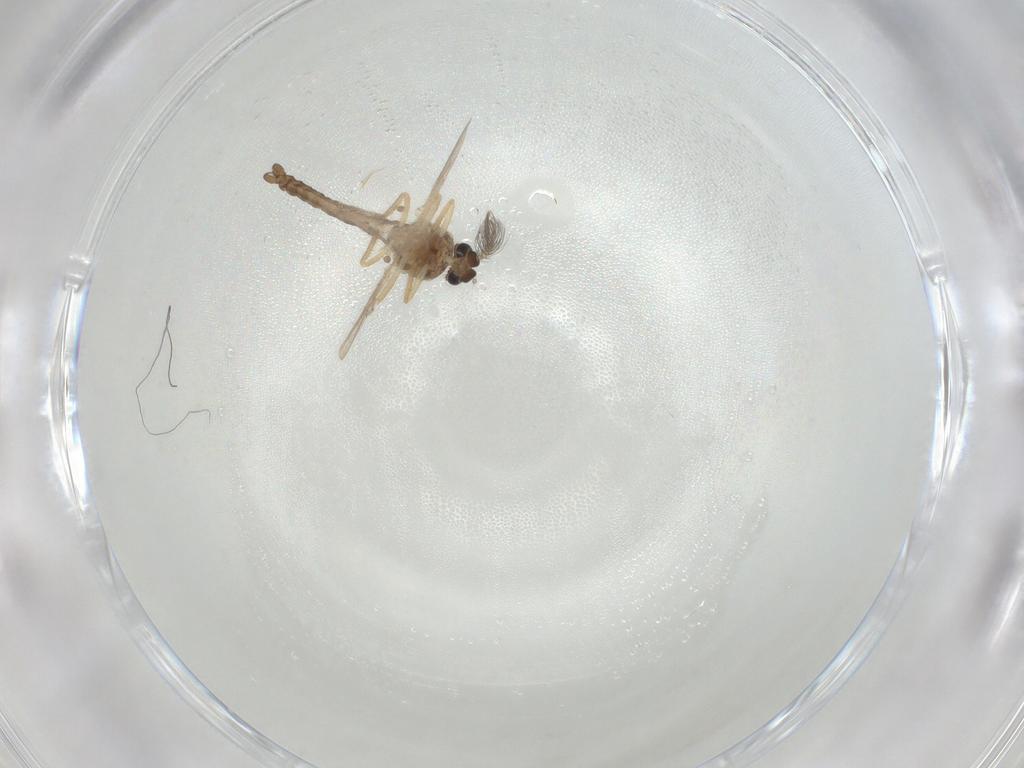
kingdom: Animalia
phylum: Arthropoda
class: Insecta
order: Diptera
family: Ceratopogonidae
